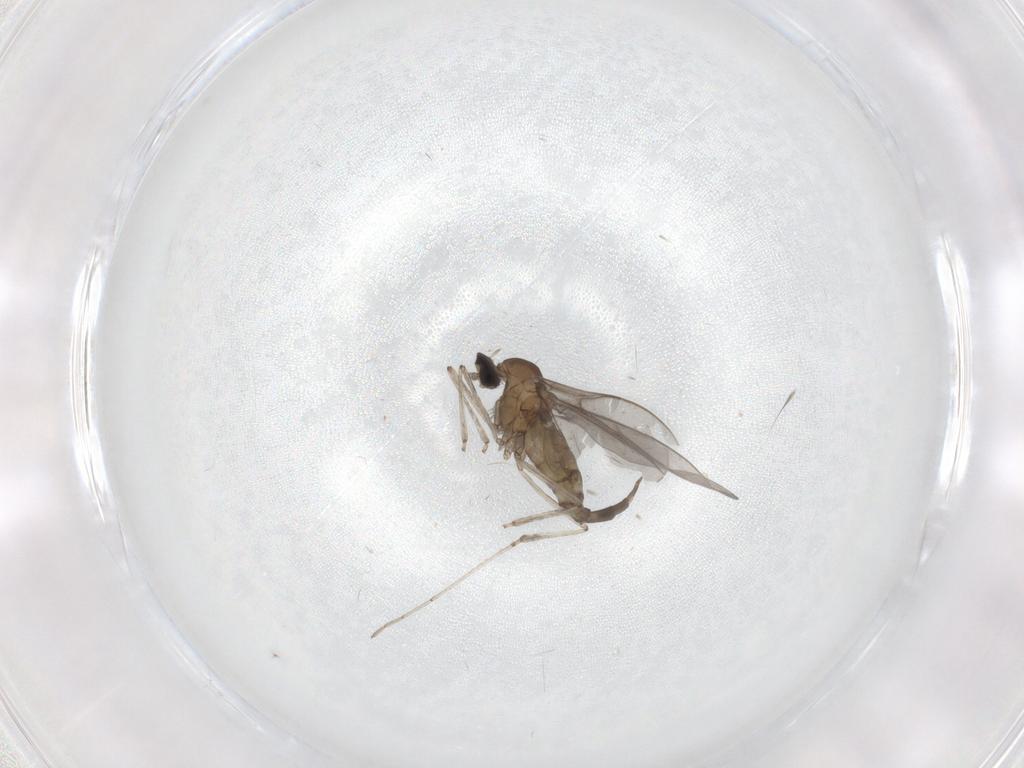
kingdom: Animalia
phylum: Arthropoda
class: Insecta
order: Diptera
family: Cecidomyiidae
